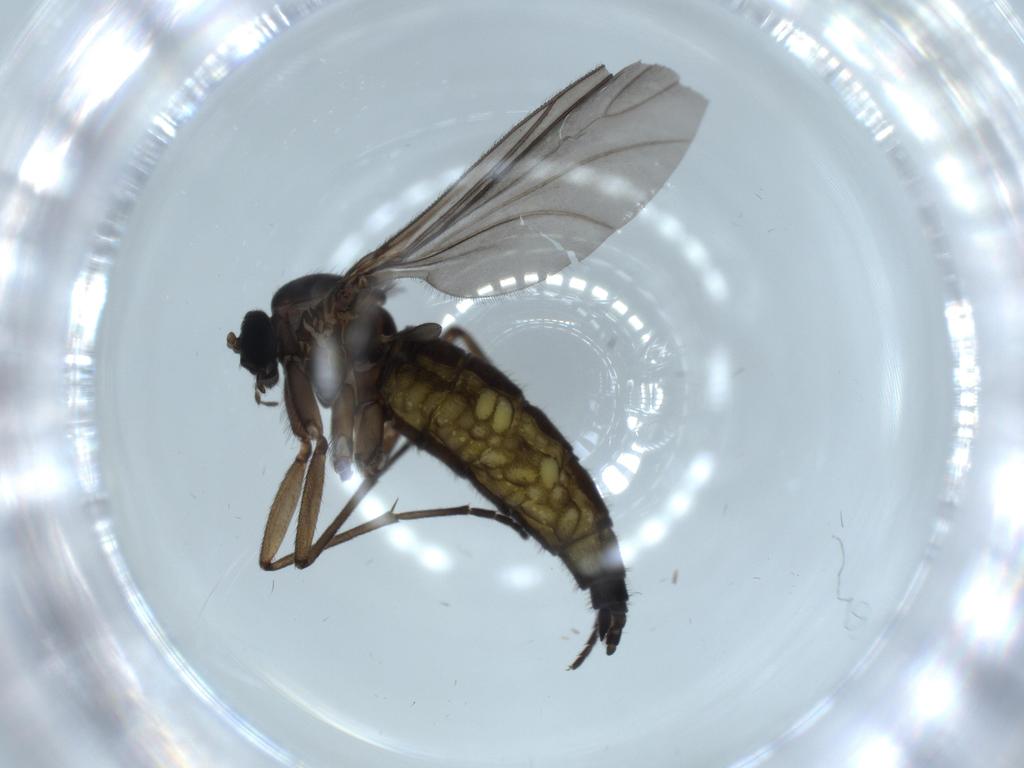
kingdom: Animalia
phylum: Arthropoda
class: Insecta
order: Diptera
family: Sciaridae
